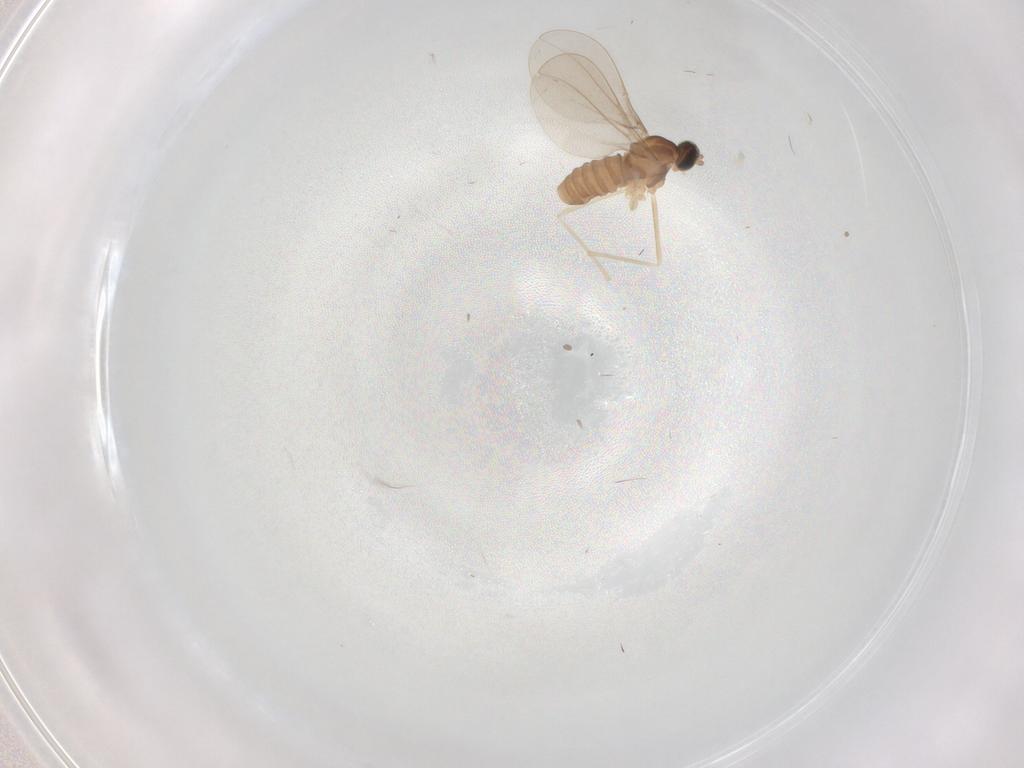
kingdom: Animalia
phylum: Arthropoda
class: Insecta
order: Diptera
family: Cecidomyiidae
